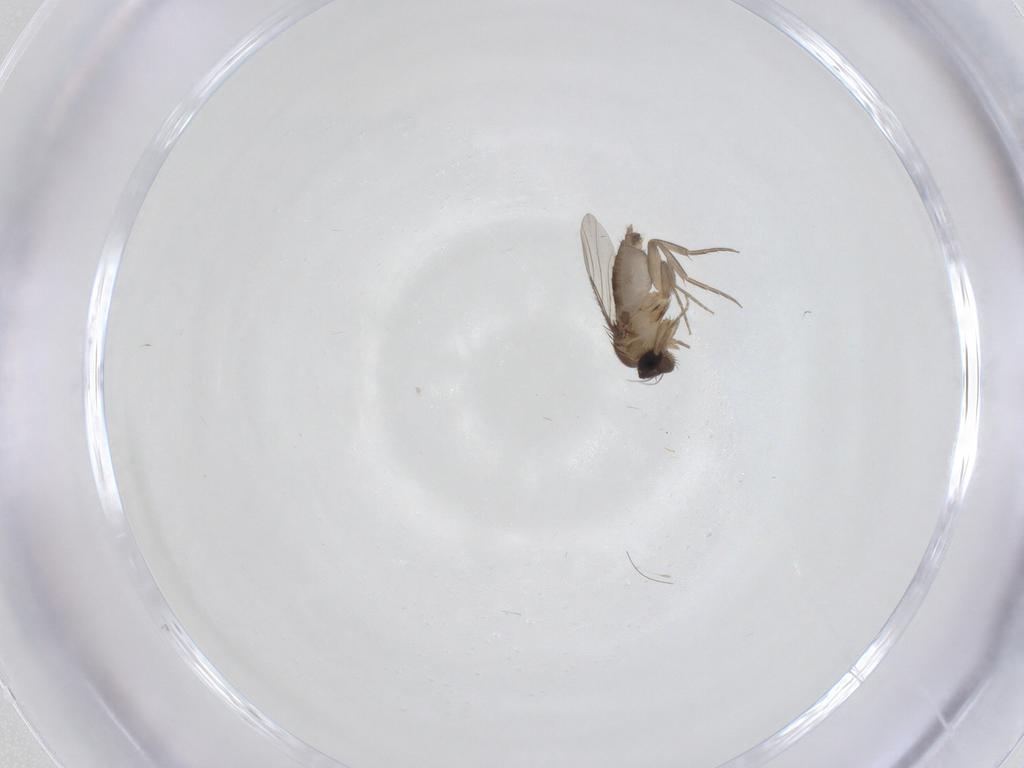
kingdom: Animalia
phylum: Arthropoda
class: Insecta
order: Diptera
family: Phoridae
